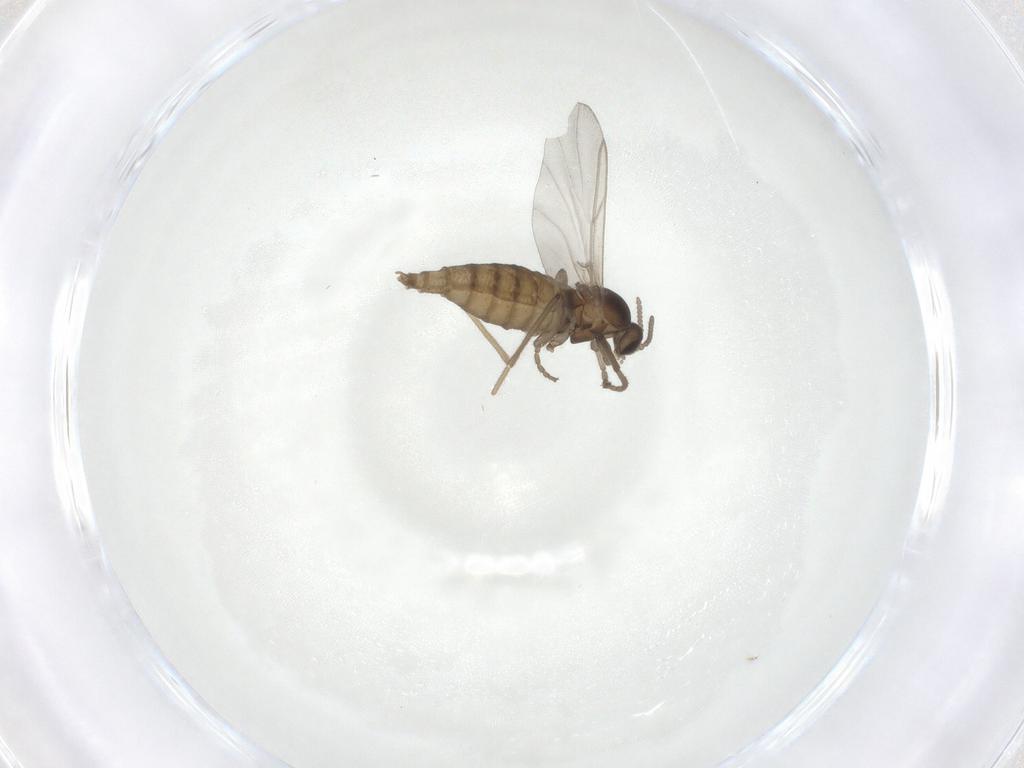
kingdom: Animalia
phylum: Arthropoda
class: Insecta
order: Diptera
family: Cecidomyiidae
